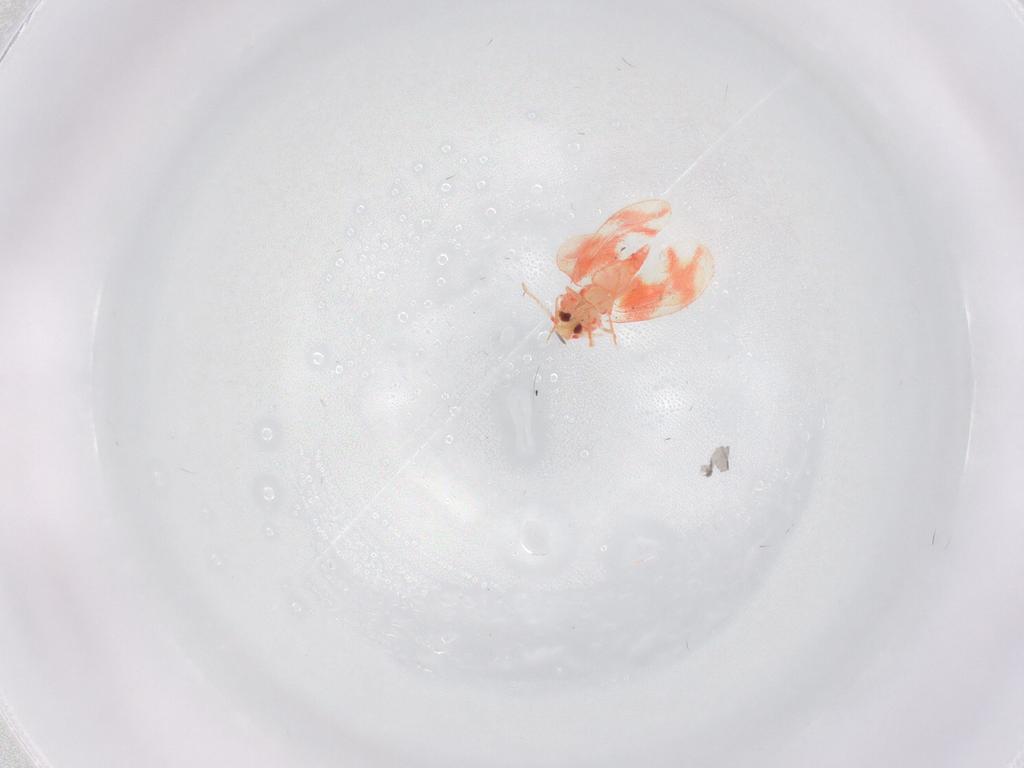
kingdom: Animalia
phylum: Arthropoda
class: Insecta
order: Hemiptera
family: Aleyrodidae
